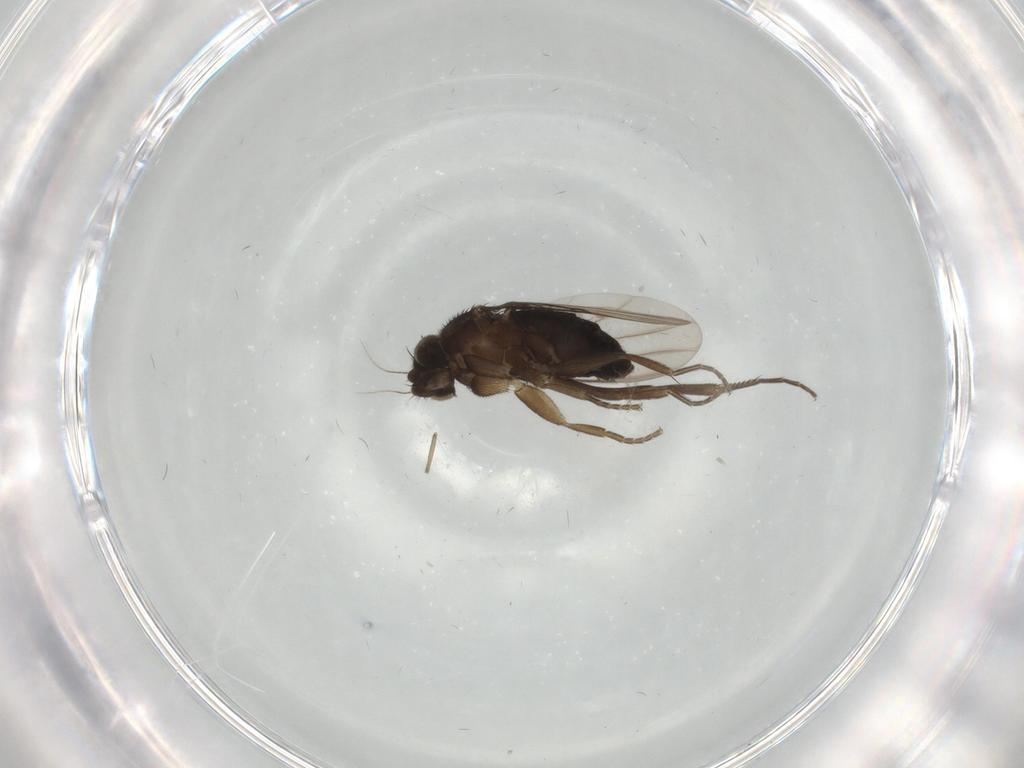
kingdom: Animalia
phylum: Arthropoda
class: Insecta
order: Diptera
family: Phoridae
